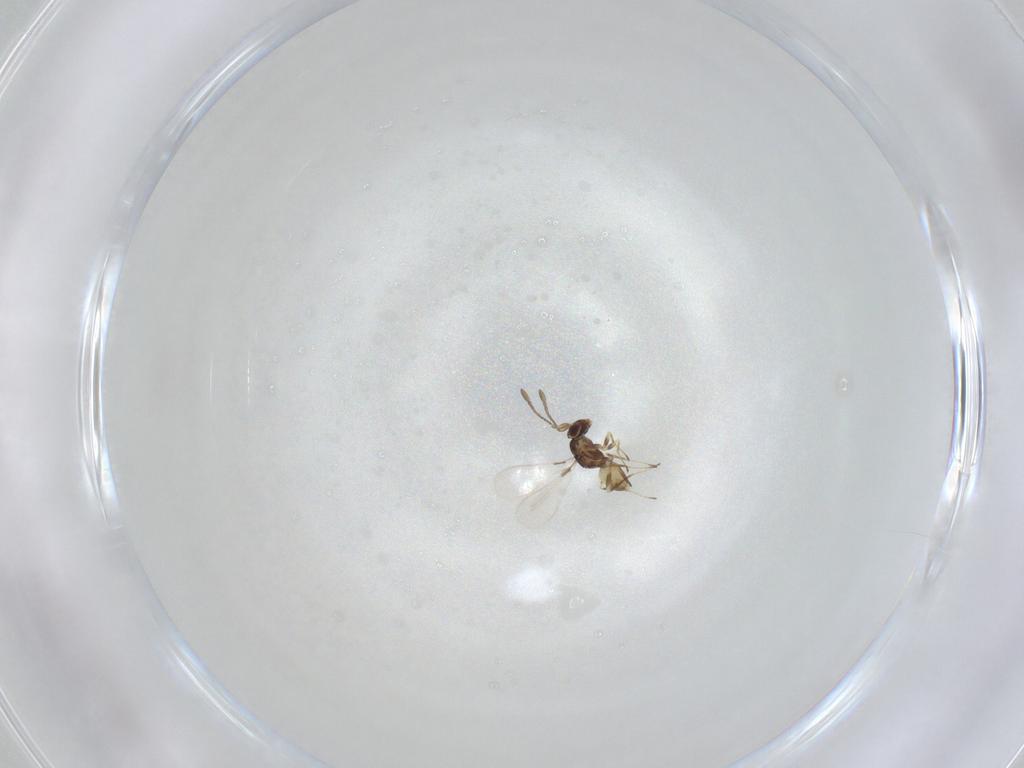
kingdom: Animalia
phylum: Arthropoda
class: Insecta
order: Hymenoptera
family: Mymaridae
